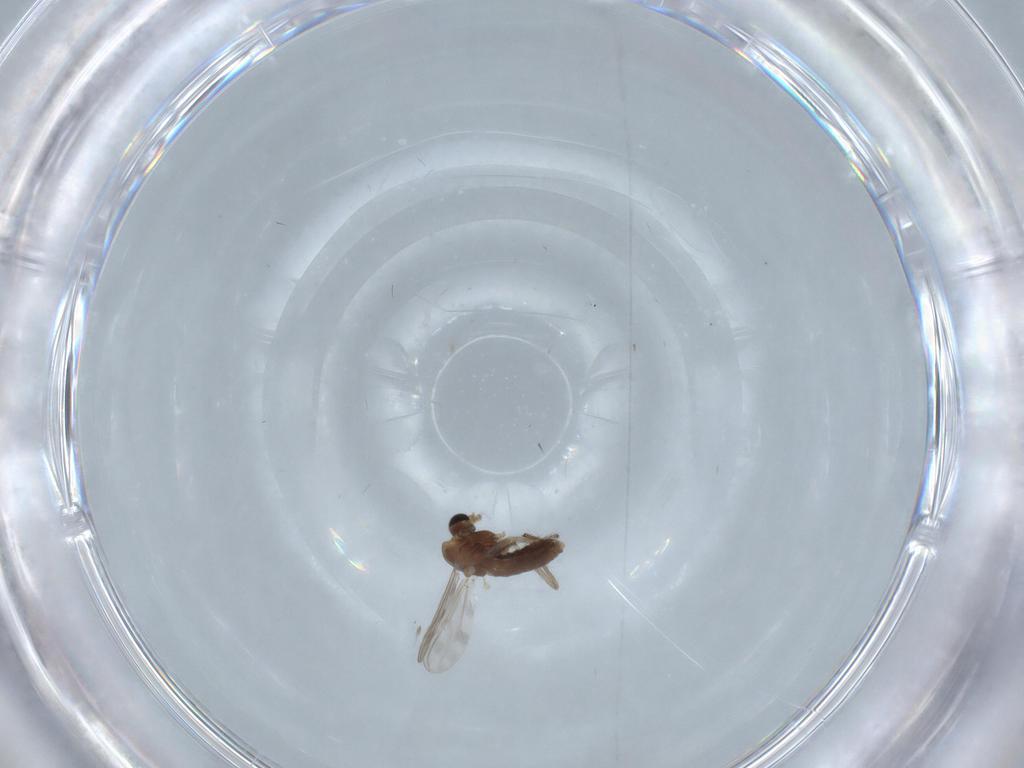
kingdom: Animalia
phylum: Arthropoda
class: Insecta
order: Diptera
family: Chironomidae
